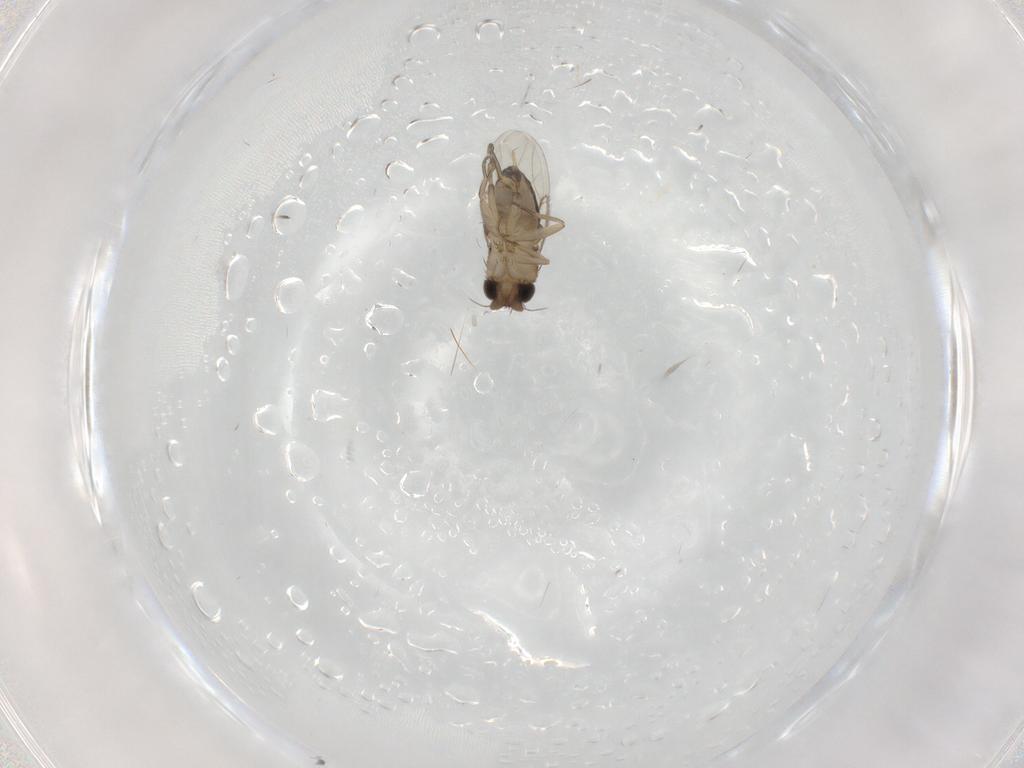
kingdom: Animalia
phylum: Arthropoda
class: Insecta
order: Diptera
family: Phoridae
